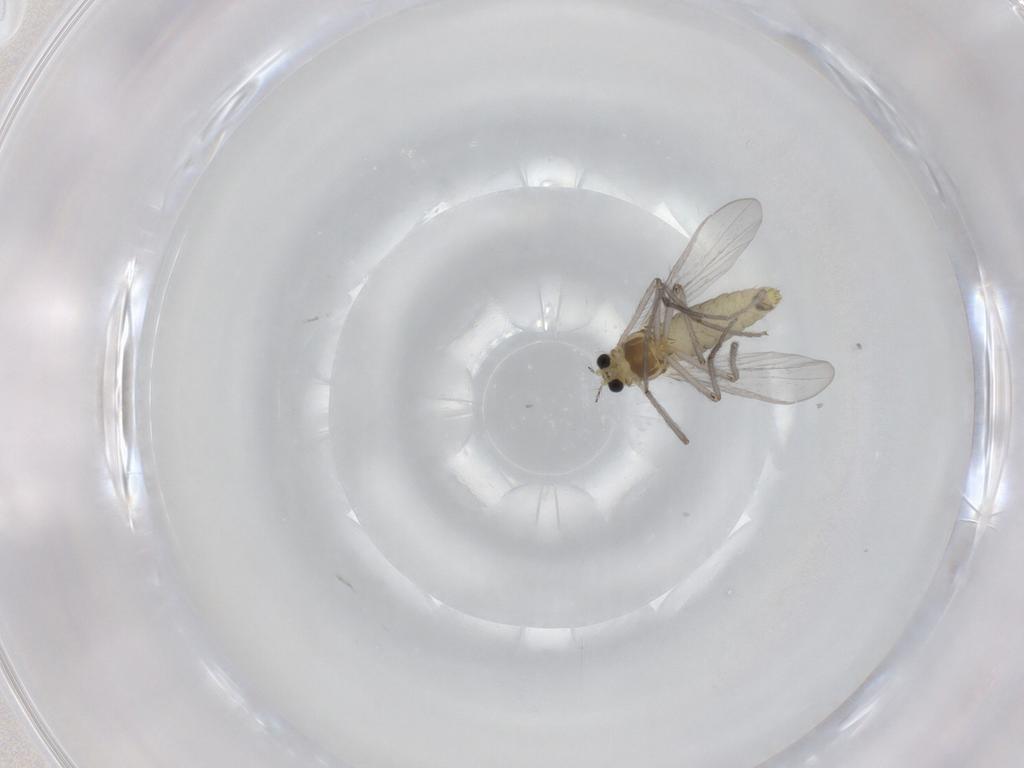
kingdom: Animalia
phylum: Arthropoda
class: Insecta
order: Diptera
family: Chironomidae
